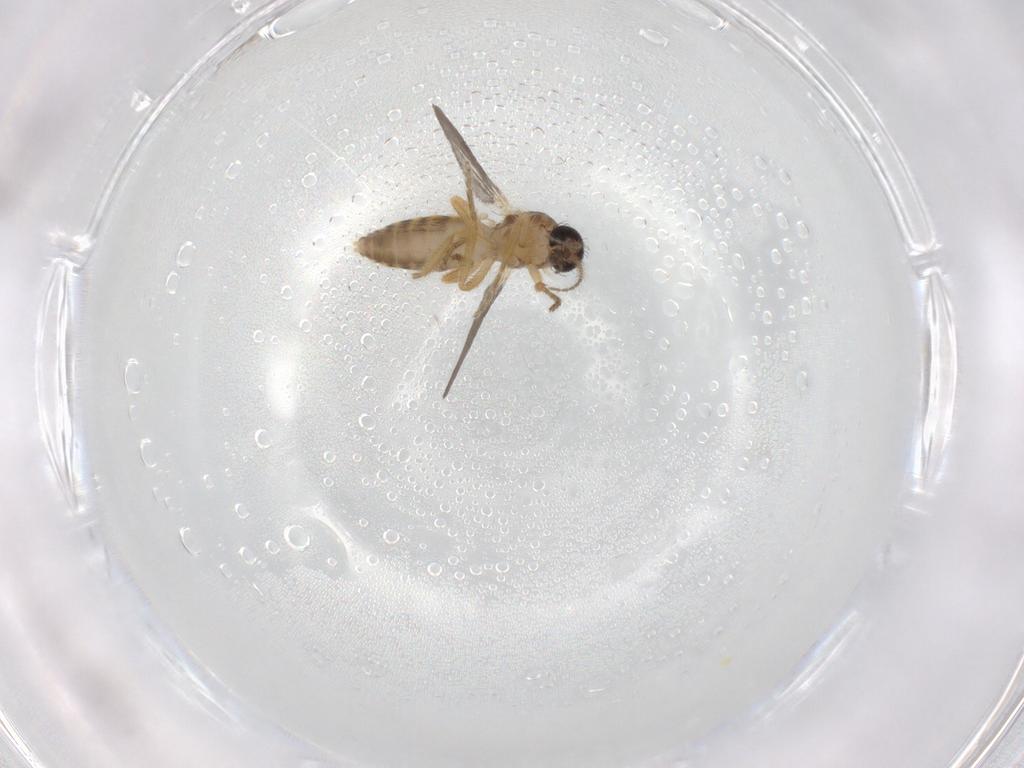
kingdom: Animalia
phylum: Arthropoda
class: Insecta
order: Diptera
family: Ceratopogonidae
